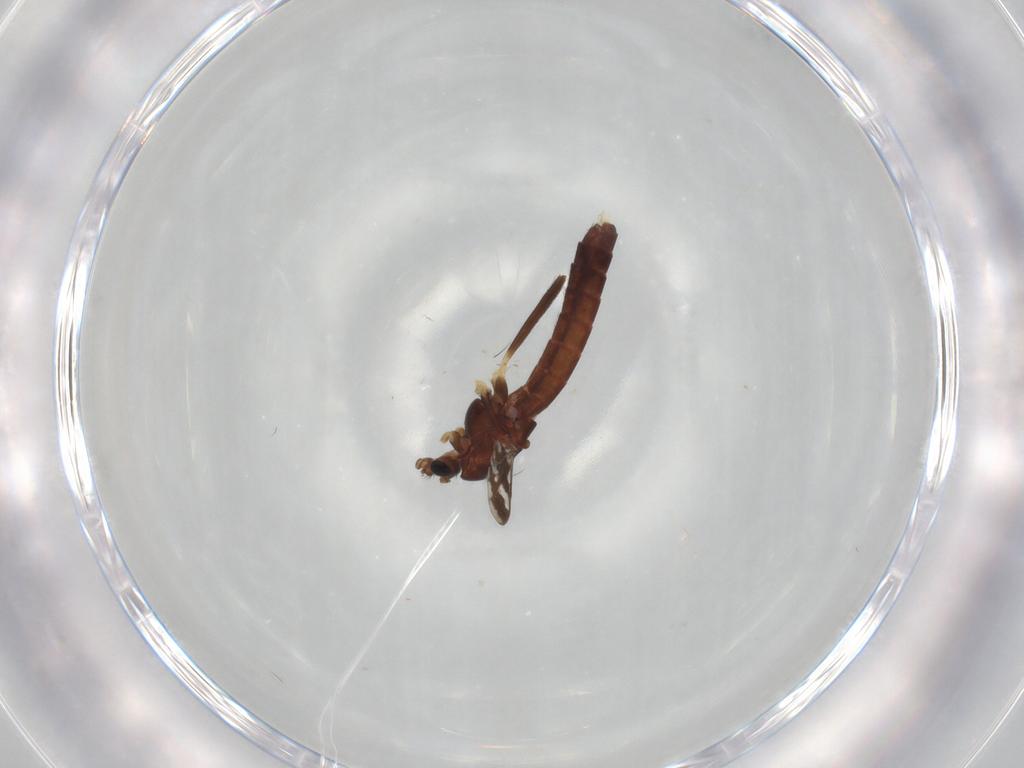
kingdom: Animalia
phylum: Arthropoda
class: Insecta
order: Diptera
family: Chironomidae
